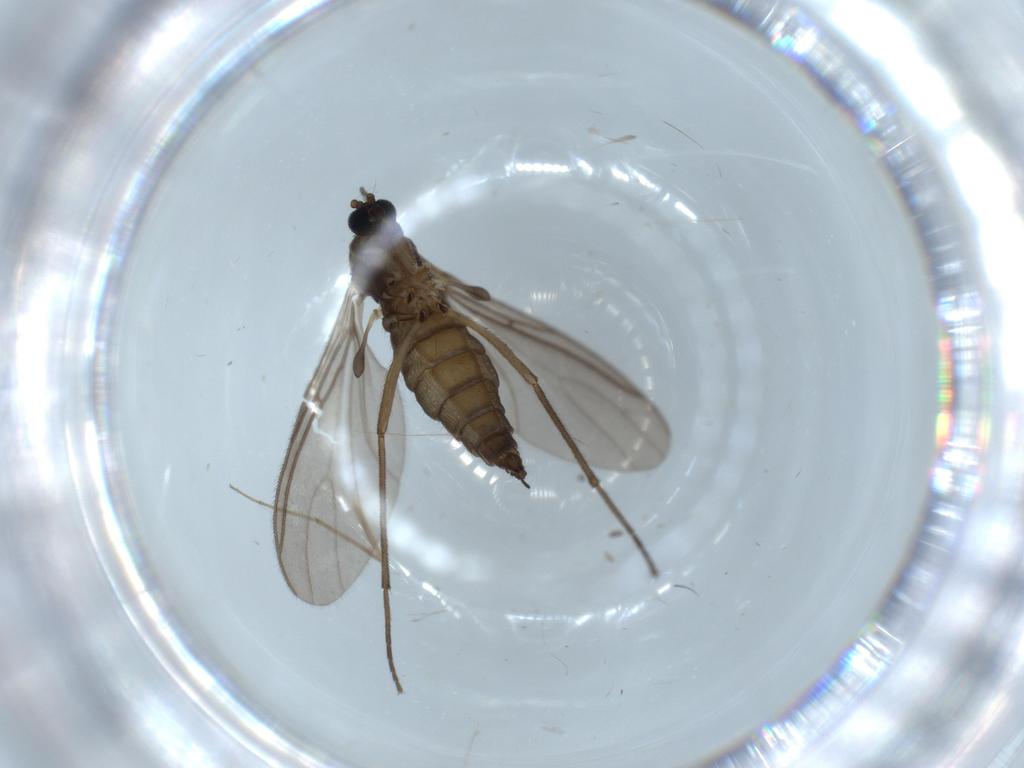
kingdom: Animalia
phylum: Arthropoda
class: Insecta
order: Diptera
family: Sciaridae
